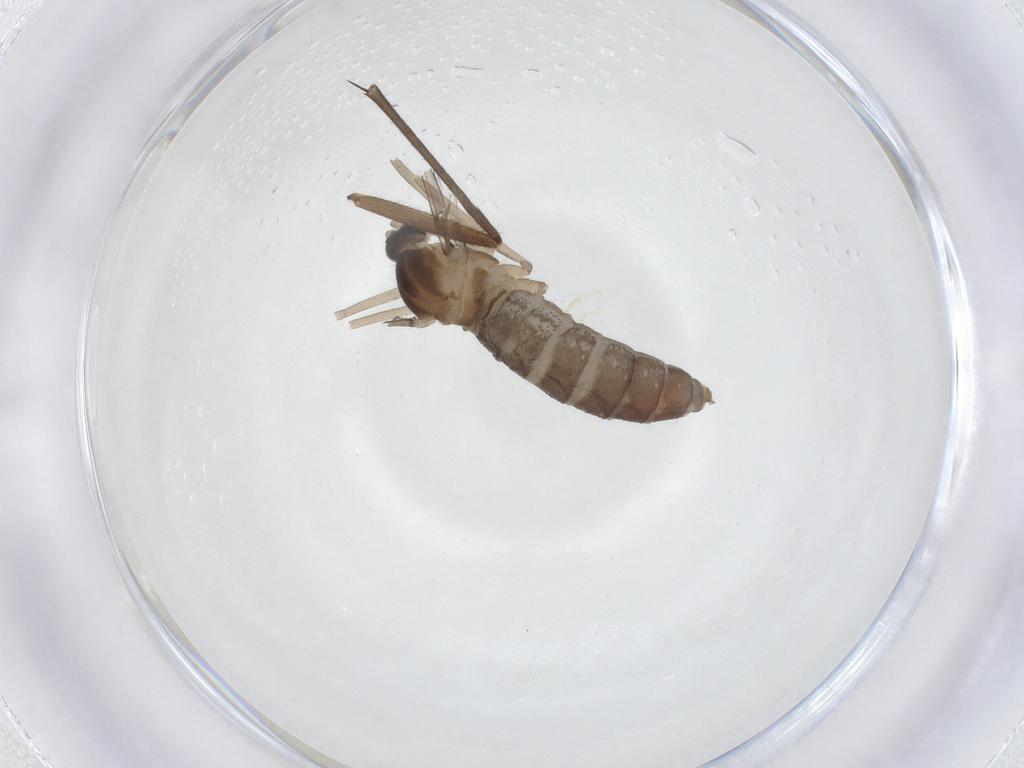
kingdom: Animalia
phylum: Arthropoda
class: Insecta
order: Diptera
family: Cecidomyiidae
